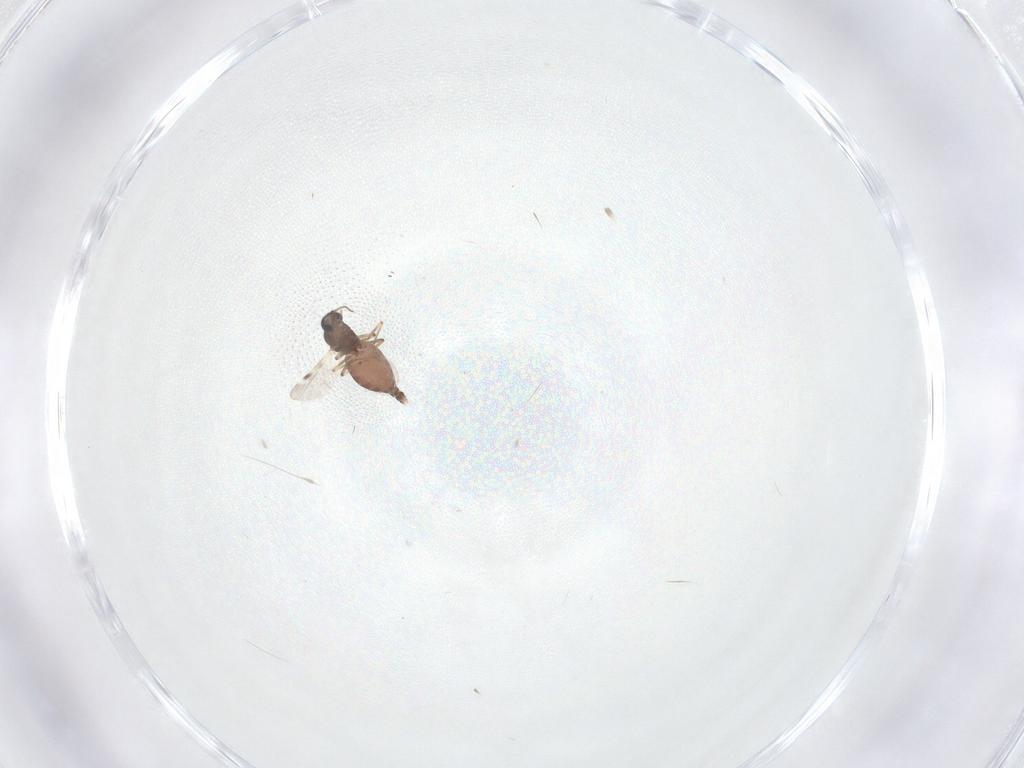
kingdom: Animalia
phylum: Arthropoda
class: Insecta
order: Diptera
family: Ceratopogonidae
